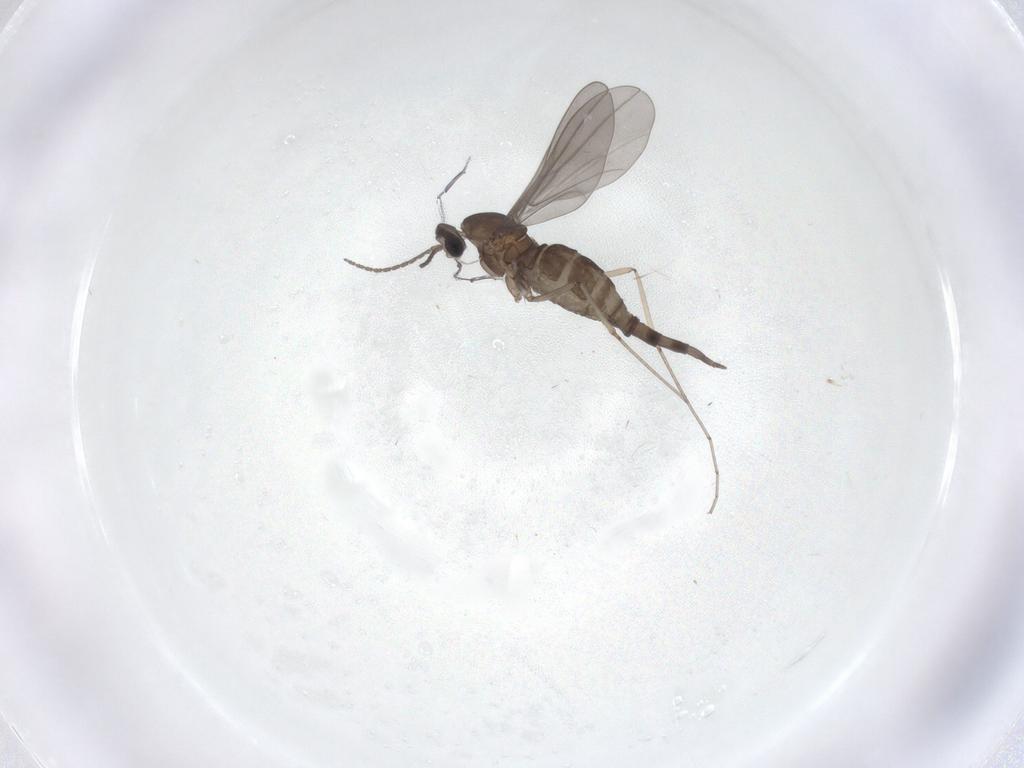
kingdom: Animalia
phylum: Arthropoda
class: Insecta
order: Diptera
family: Cecidomyiidae
